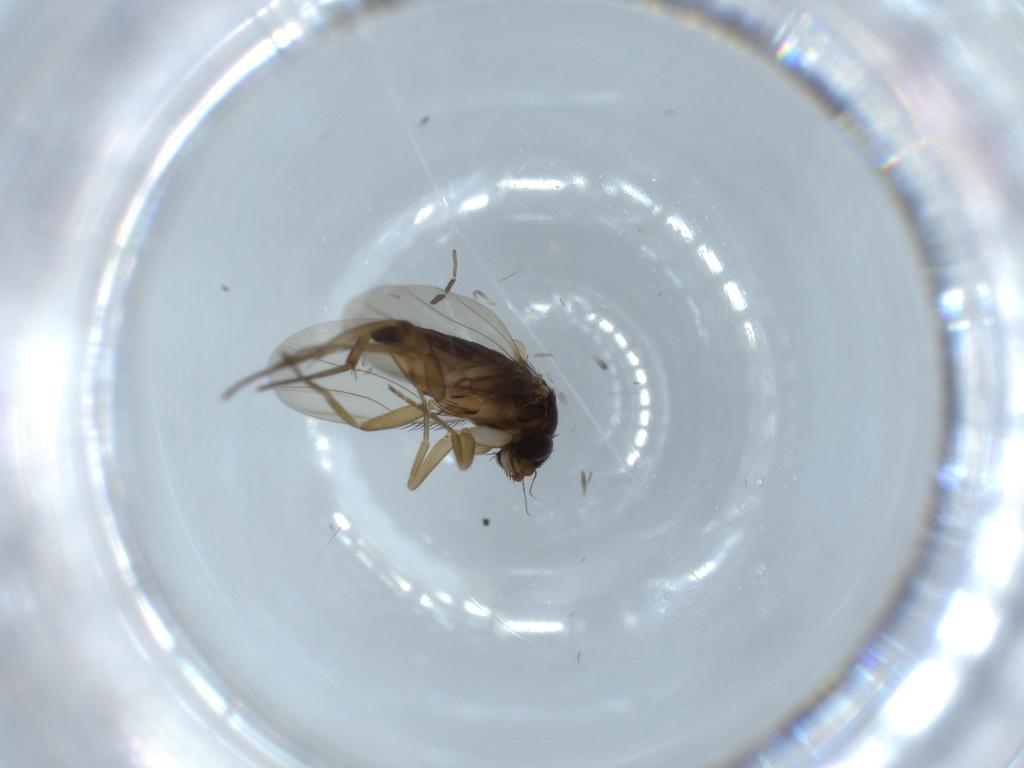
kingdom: Animalia
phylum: Arthropoda
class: Insecta
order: Diptera
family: Phoridae
